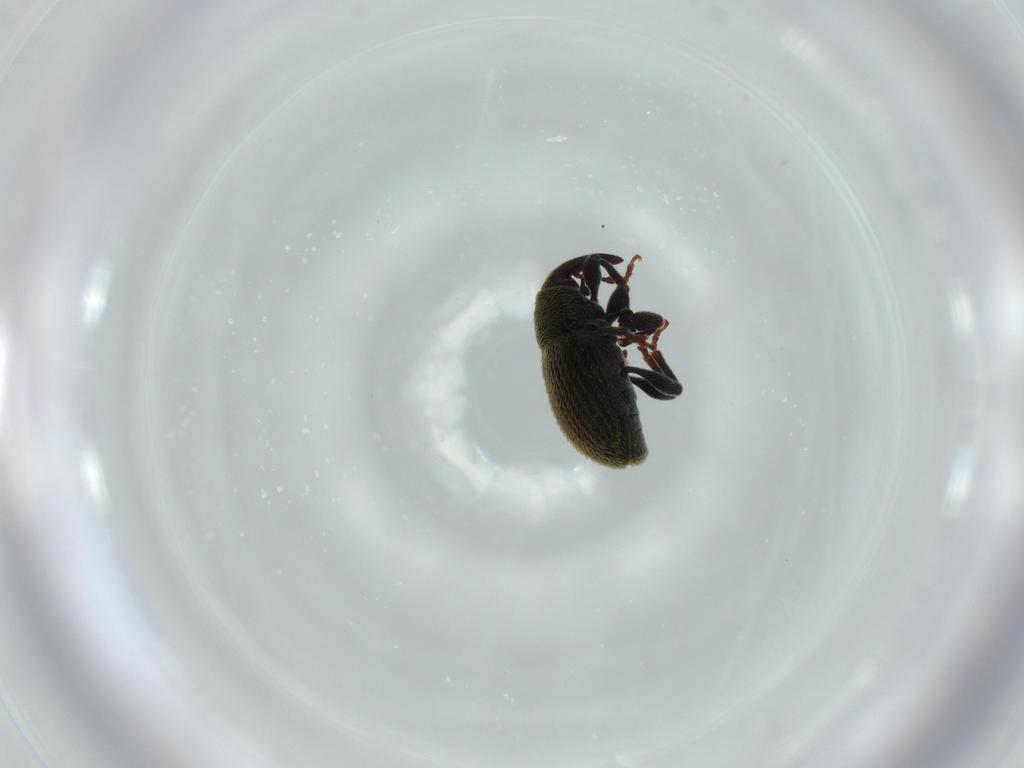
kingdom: Animalia
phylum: Arthropoda
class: Insecta
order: Coleoptera
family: Curculionidae
